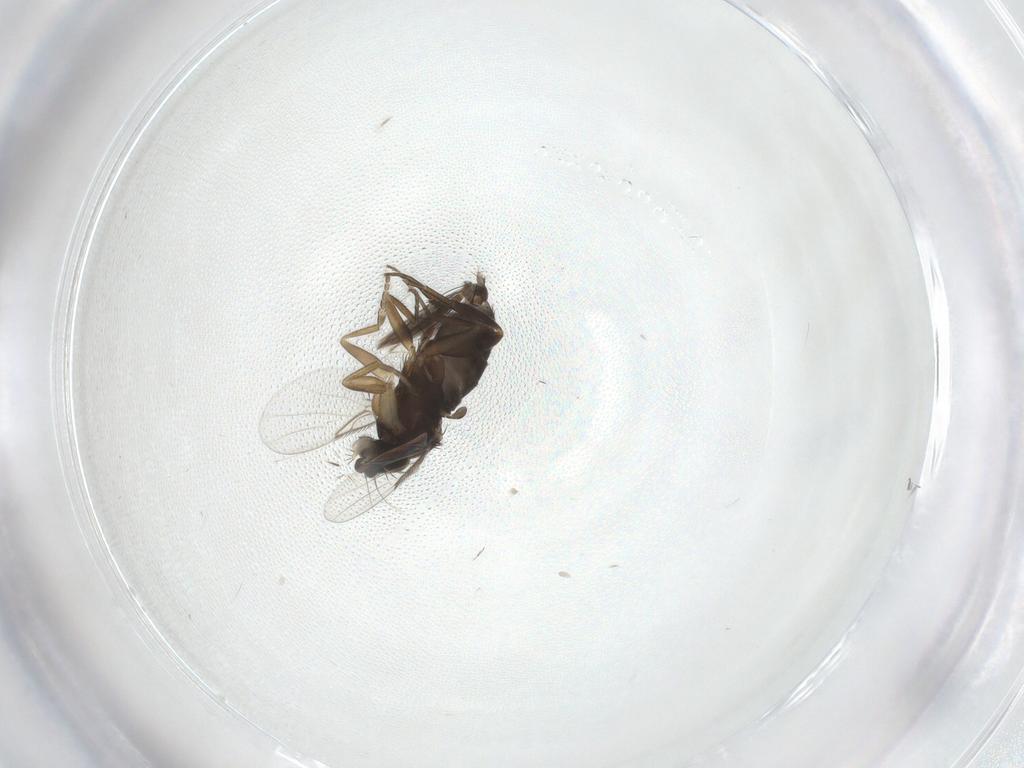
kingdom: Animalia
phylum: Arthropoda
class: Insecta
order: Diptera
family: Phoridae
